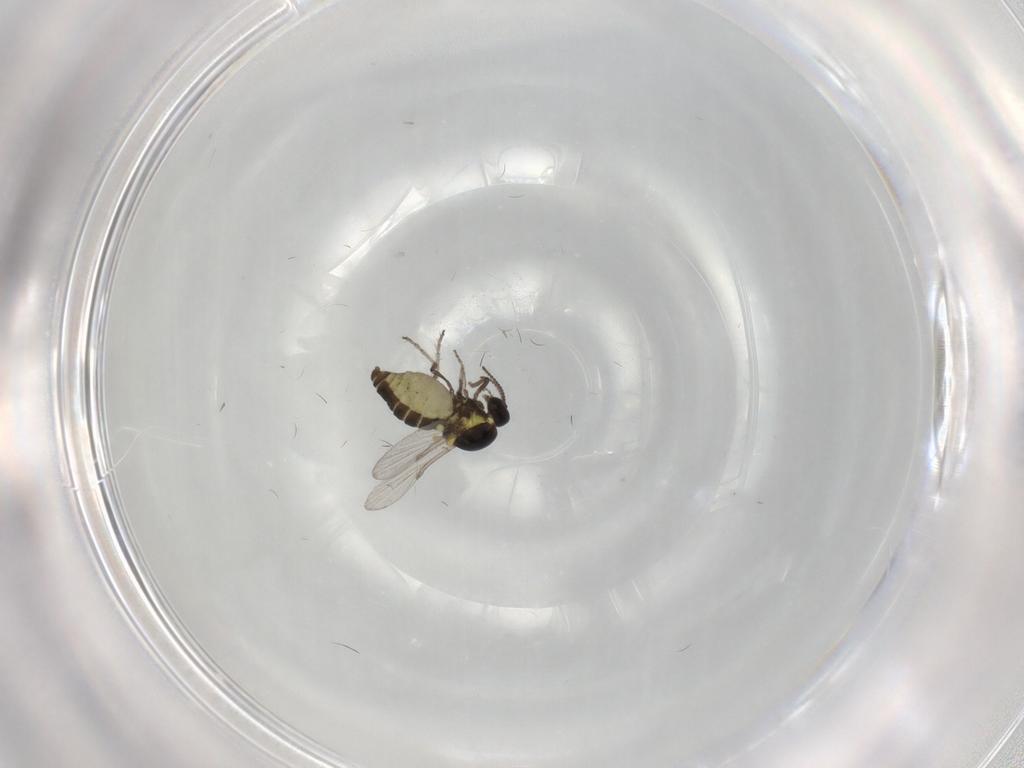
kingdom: Animalia
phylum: Arthropoda
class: Insecta
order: Diptera
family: Ceratopogonidae
